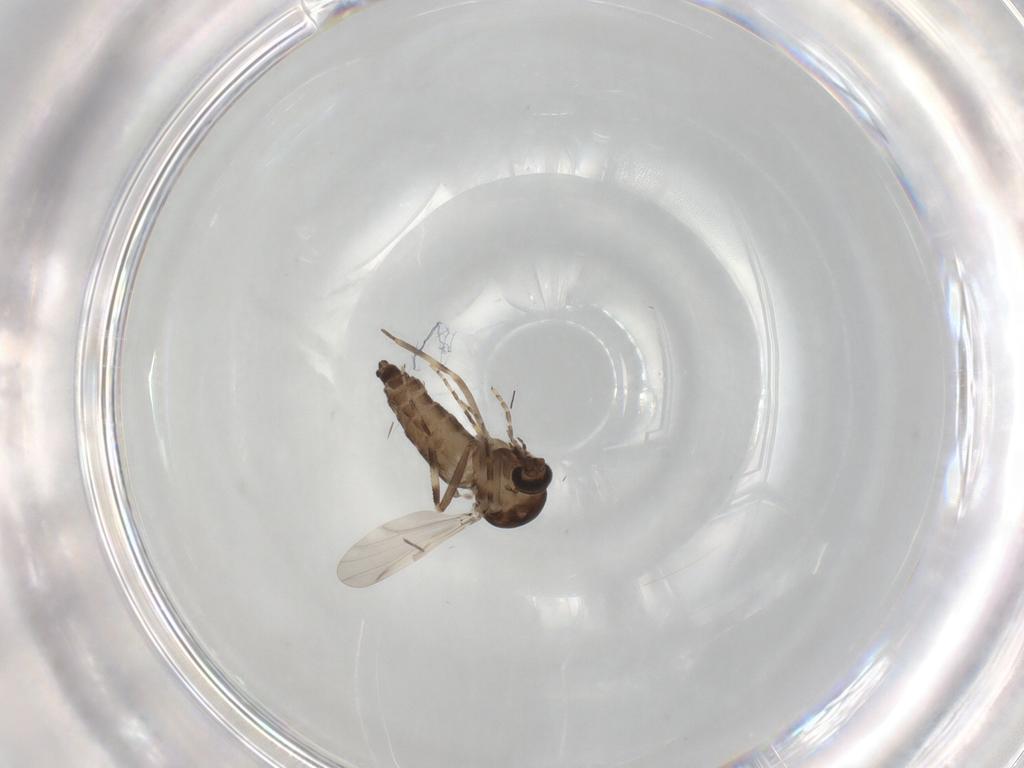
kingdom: Animalia
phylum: Arthropoda
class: Insecta
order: Diptera
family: Ceratopogonidae
